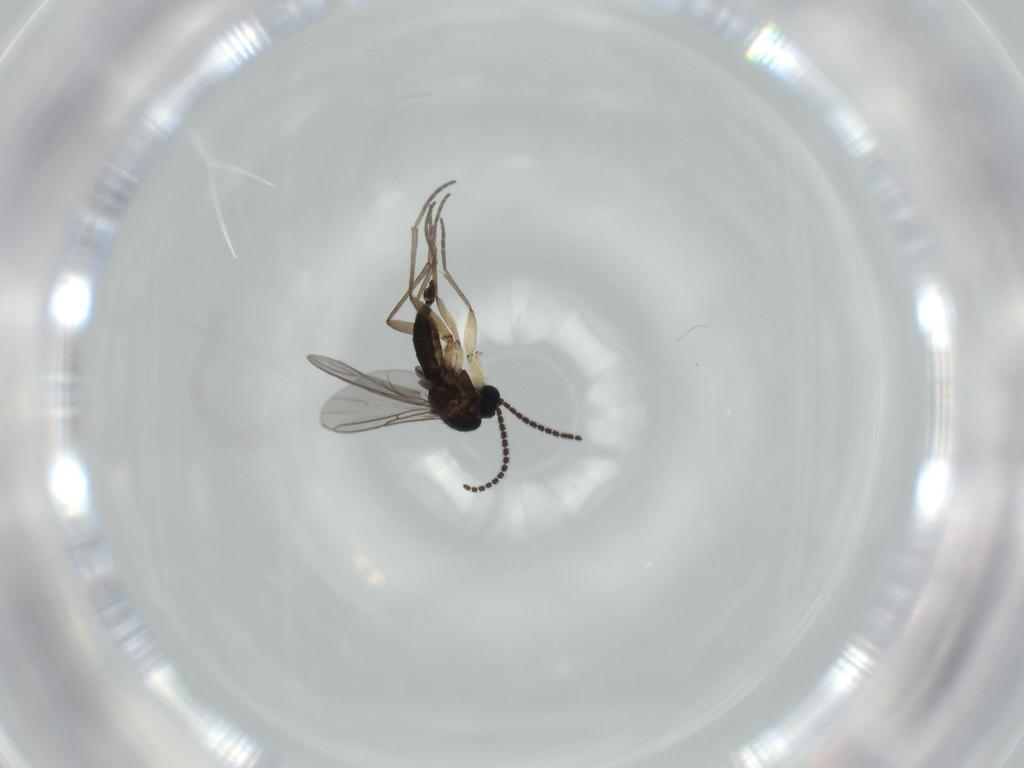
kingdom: Animalia
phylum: Arthropoda
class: Insecta
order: Diptera
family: Sciaridae
